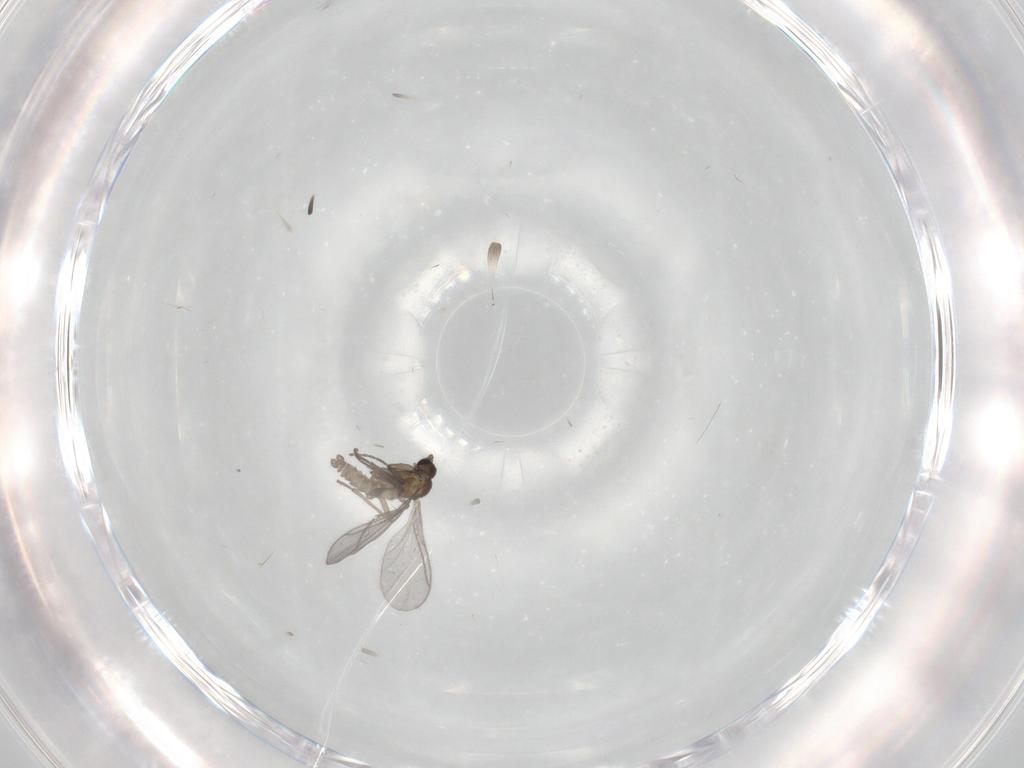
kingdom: Animalia
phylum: Arthropoda
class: Insecta
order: Diptera
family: Sciaridae
